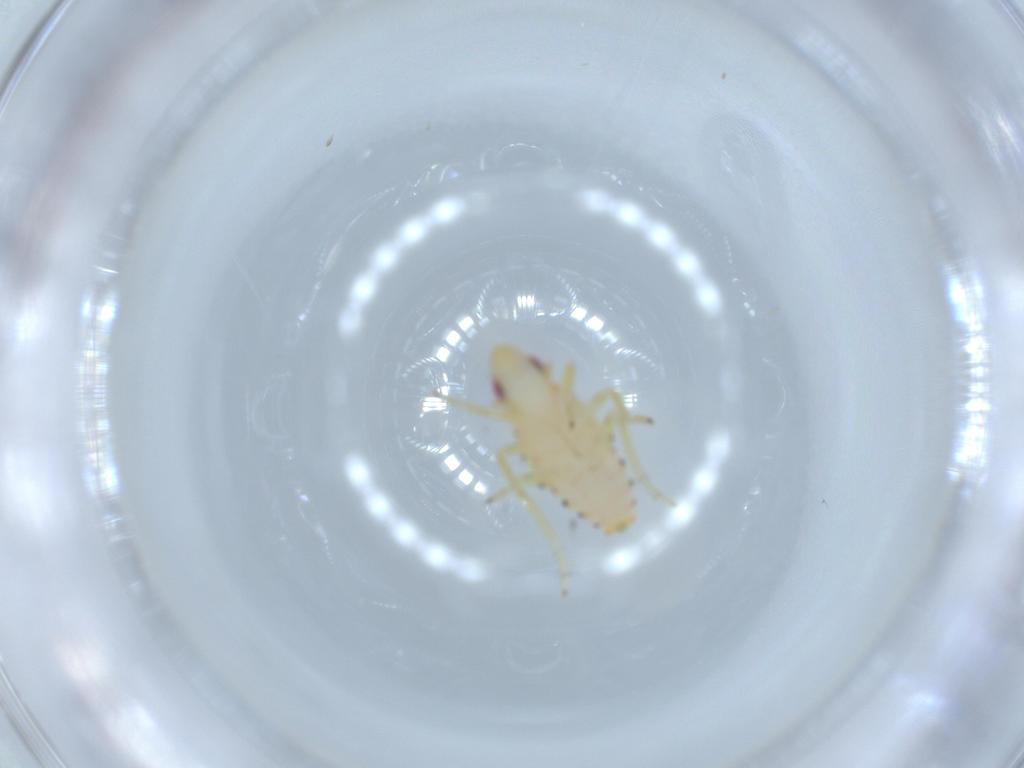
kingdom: Animalia
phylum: Arthropoda
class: Insecta
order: Hemiptera
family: Tropiduchidae
